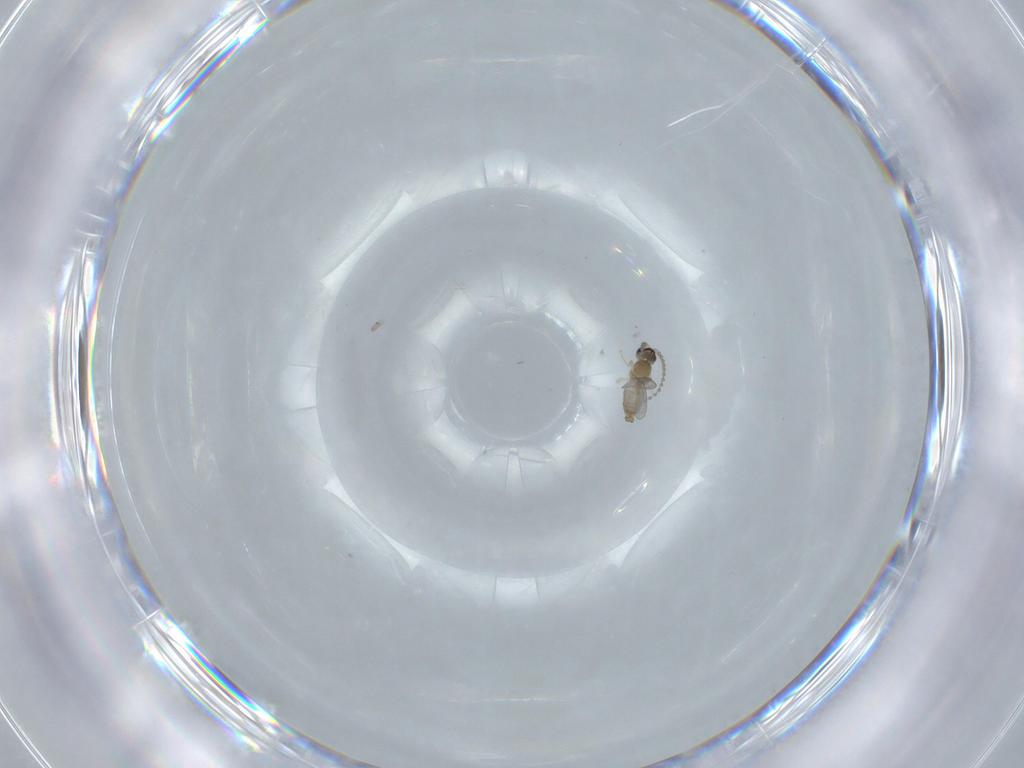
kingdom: Animalia
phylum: Arthropoda
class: Insecta
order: Diptera
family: Cecidomyiidae
